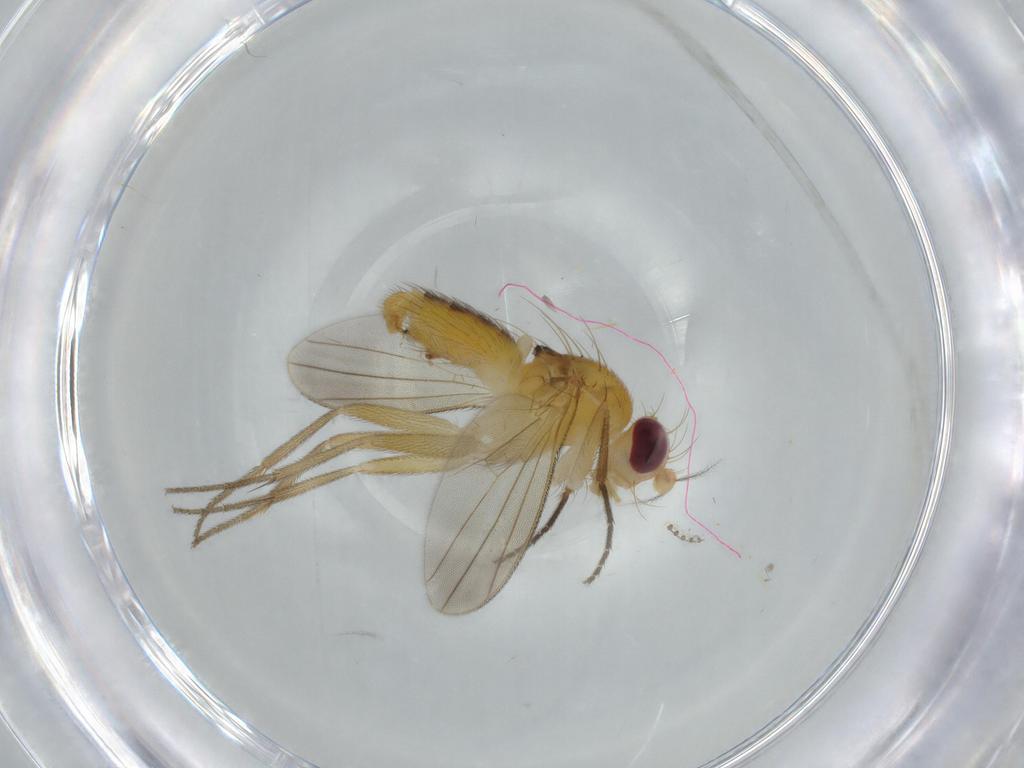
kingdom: Animalia
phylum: Arthropoda
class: Insecta
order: Diptera
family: Clusiidae
